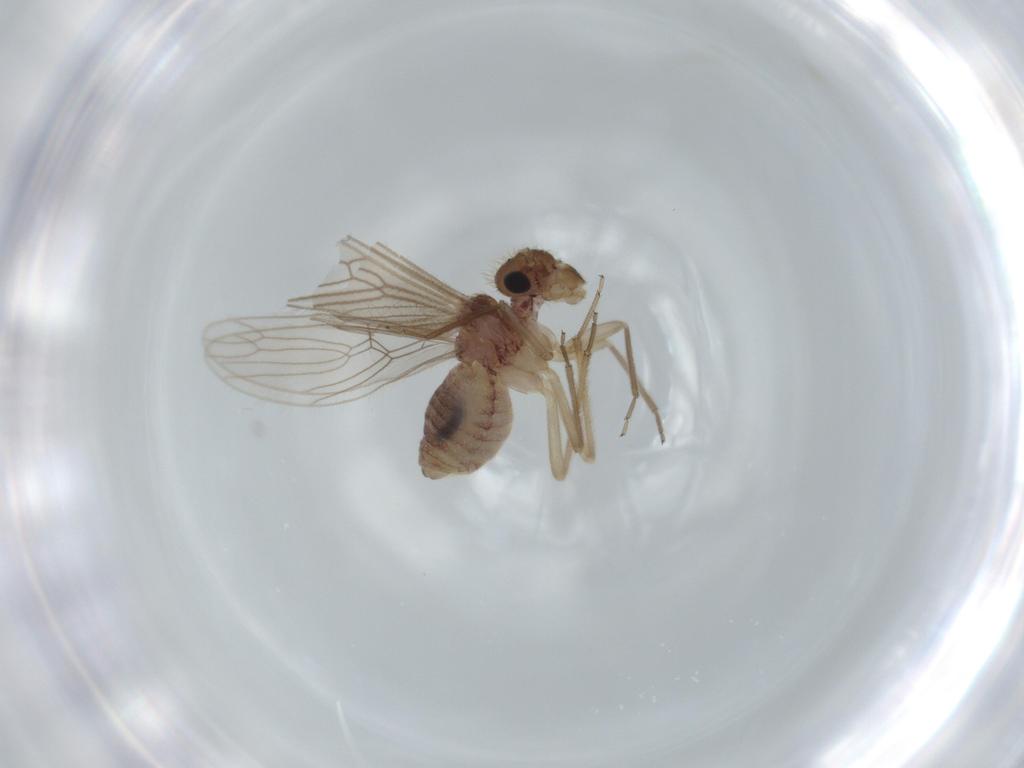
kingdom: Animalia
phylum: Arthropoda
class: Insecta
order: Psocodea
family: Cladiopsocidae
